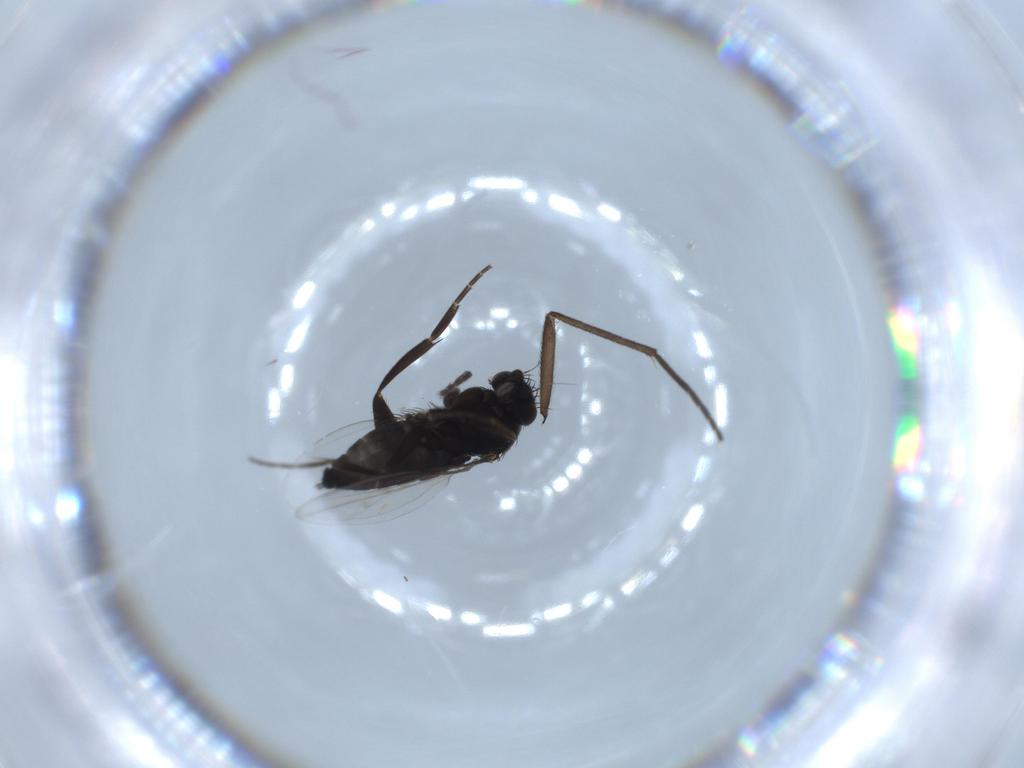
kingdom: Animalia
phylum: Arthropoda
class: Insecta
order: Diptera
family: Phoridae
